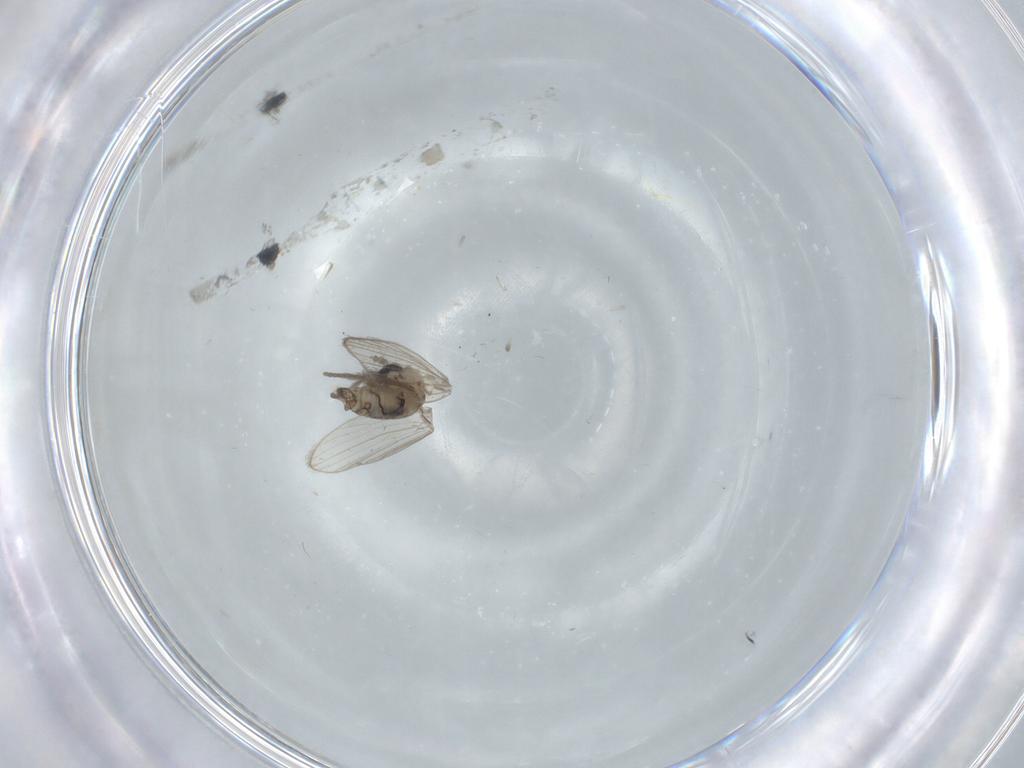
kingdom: Animalia
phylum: Arthropoda
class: Insecta
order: Diptera
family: Psychodidae
